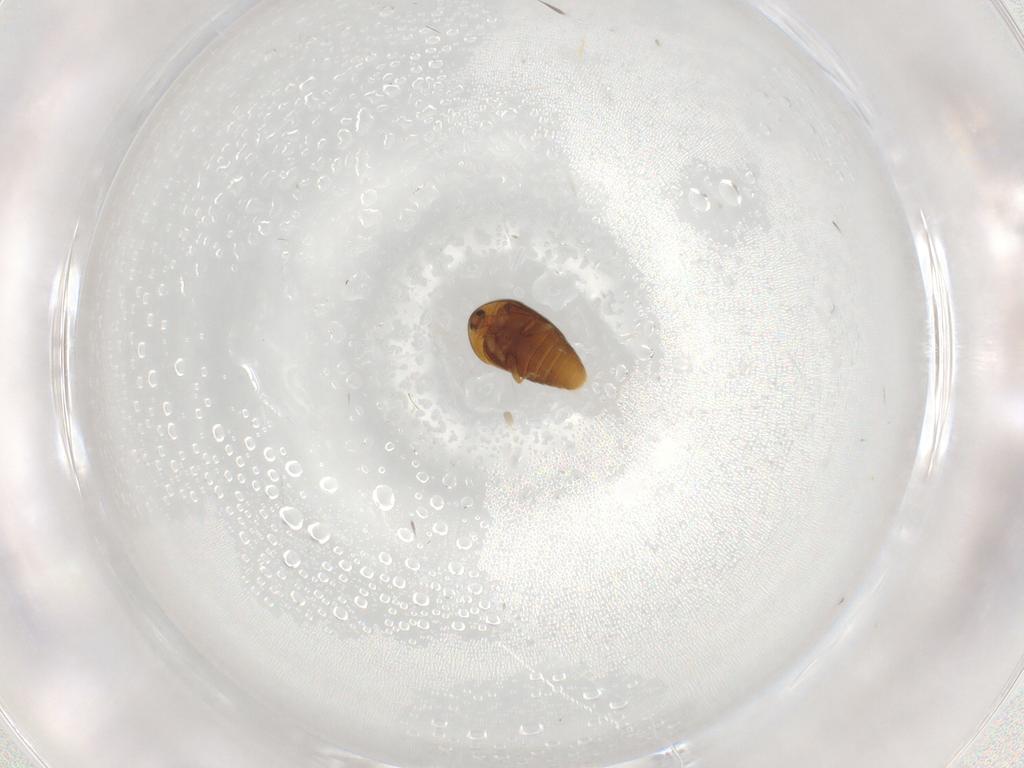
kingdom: Animalia
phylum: Arthropoda
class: Insecta
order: Coleoptera
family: Corylophidae
